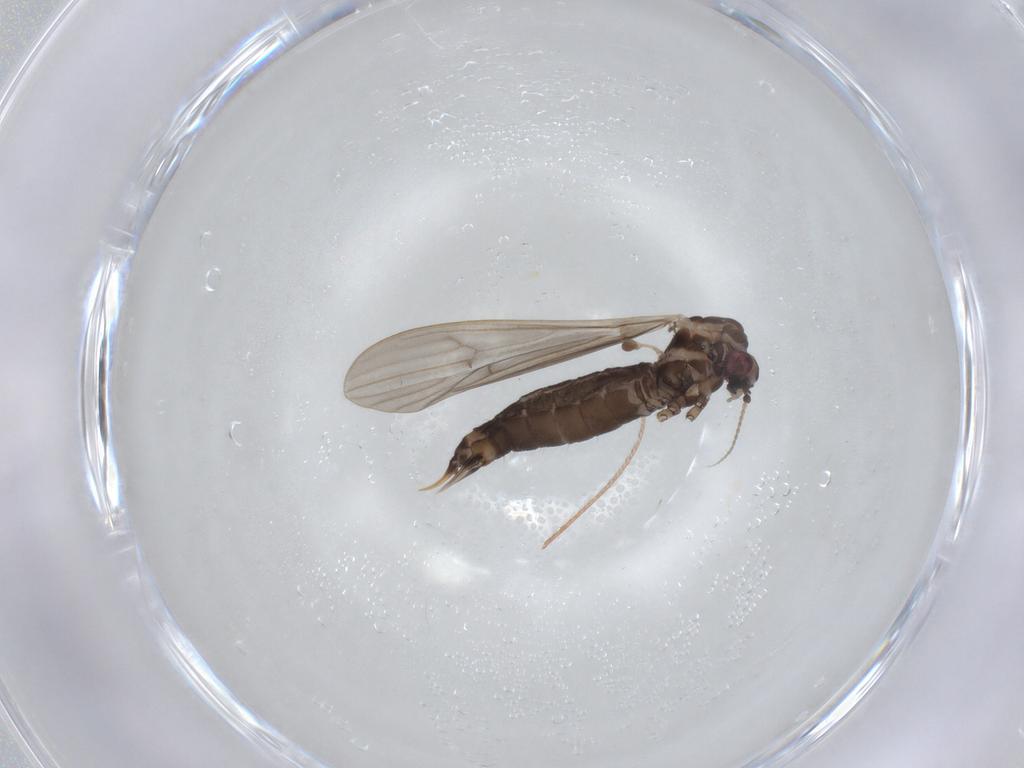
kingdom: Animalia
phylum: Arthropoda
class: Insecta
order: Diptera
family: Limoniidae
